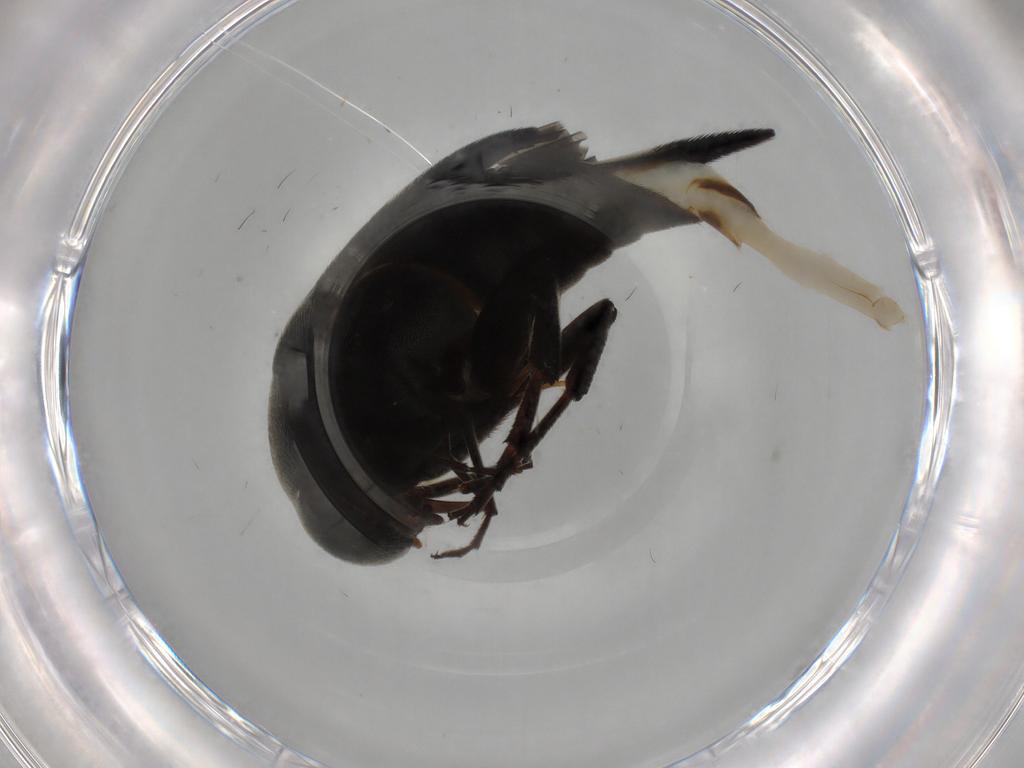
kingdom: Animalia
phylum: Arthropoda
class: Insecta
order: Coleoptera
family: Mordellidae
